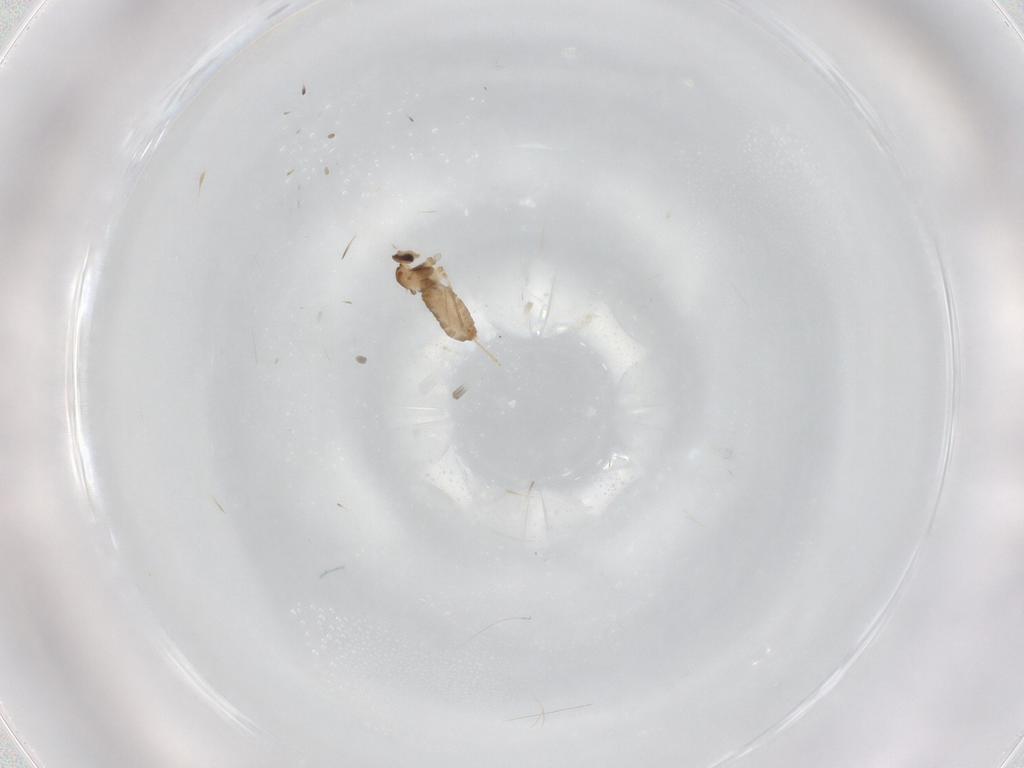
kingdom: Animalia
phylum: Arthropoda
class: Insecta
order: Diptera
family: Cecidomyiidae
